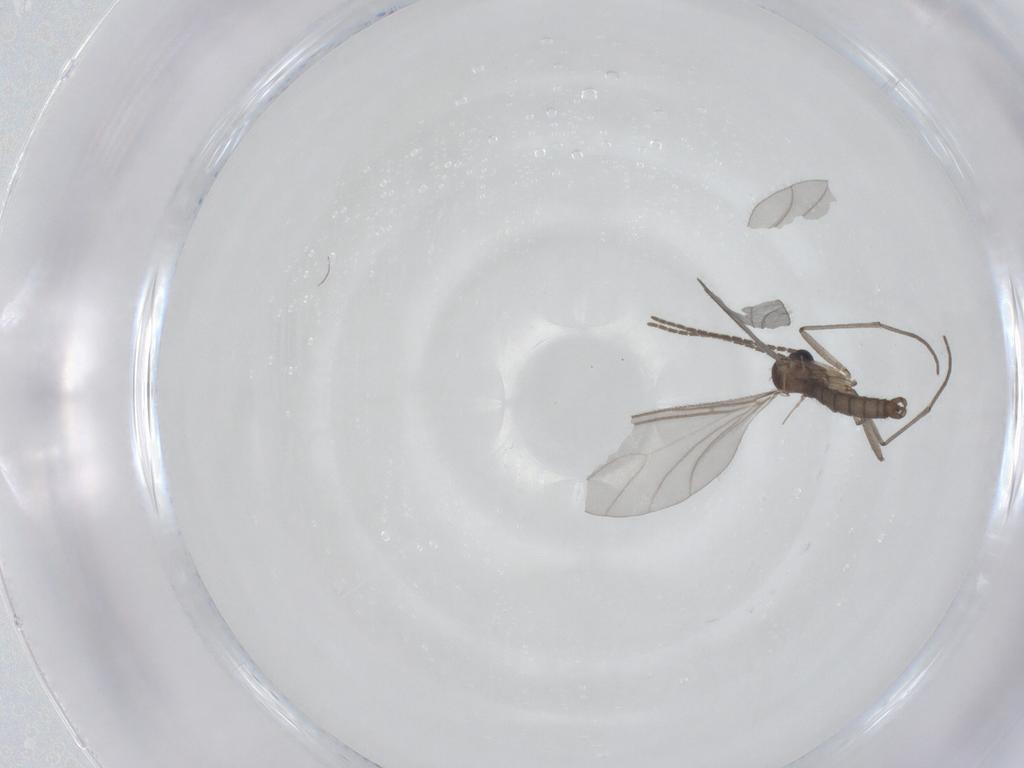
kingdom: Animalia
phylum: Arthropoda
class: Insecta
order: Diptera
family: Sciaridae
